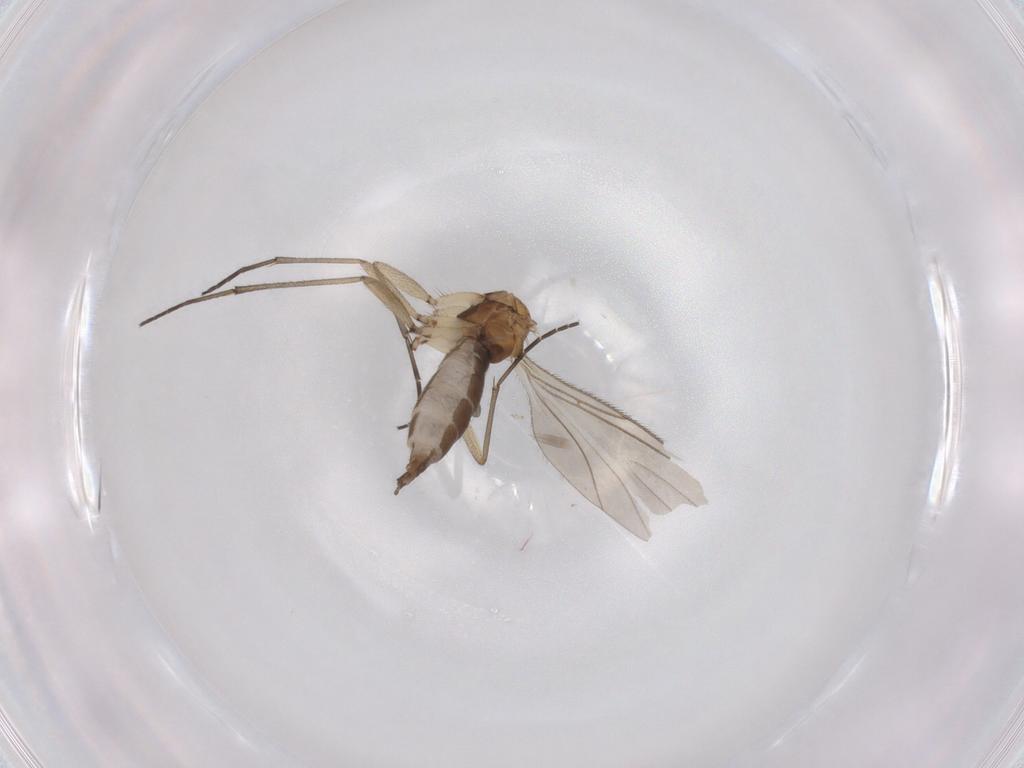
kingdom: Animalia
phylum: Arthropoda
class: Insecta
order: Diptera
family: Sciaridae
